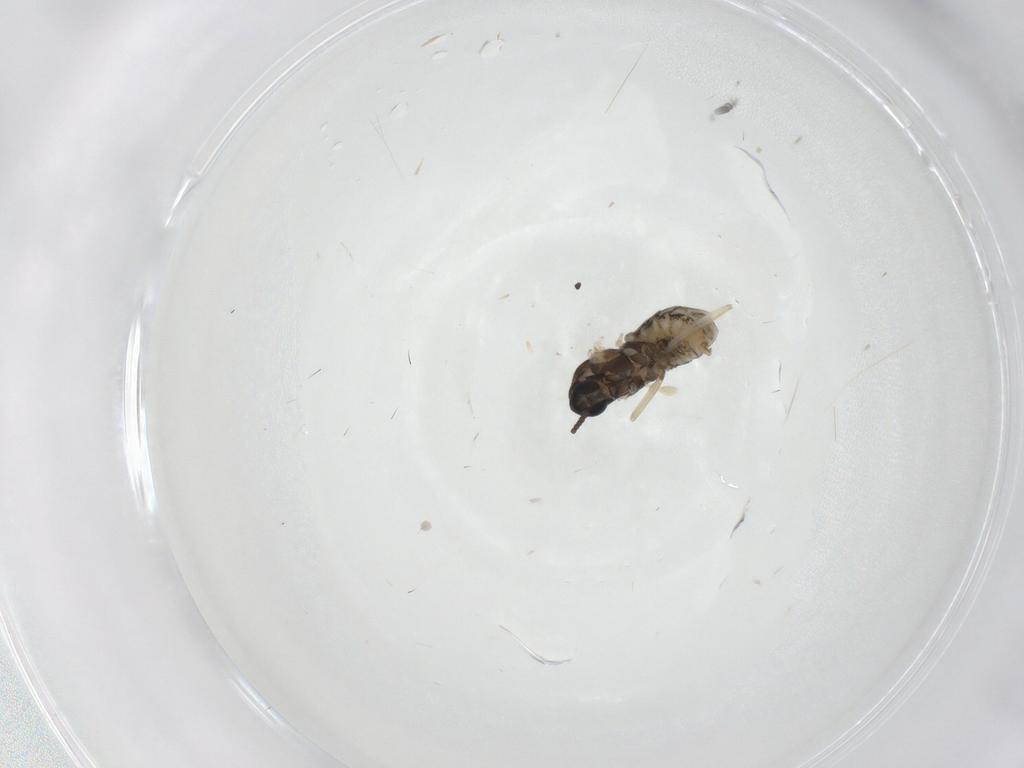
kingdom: Animalia
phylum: Arthropoda
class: Insecta
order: Diptera
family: Cecidomyiidae
